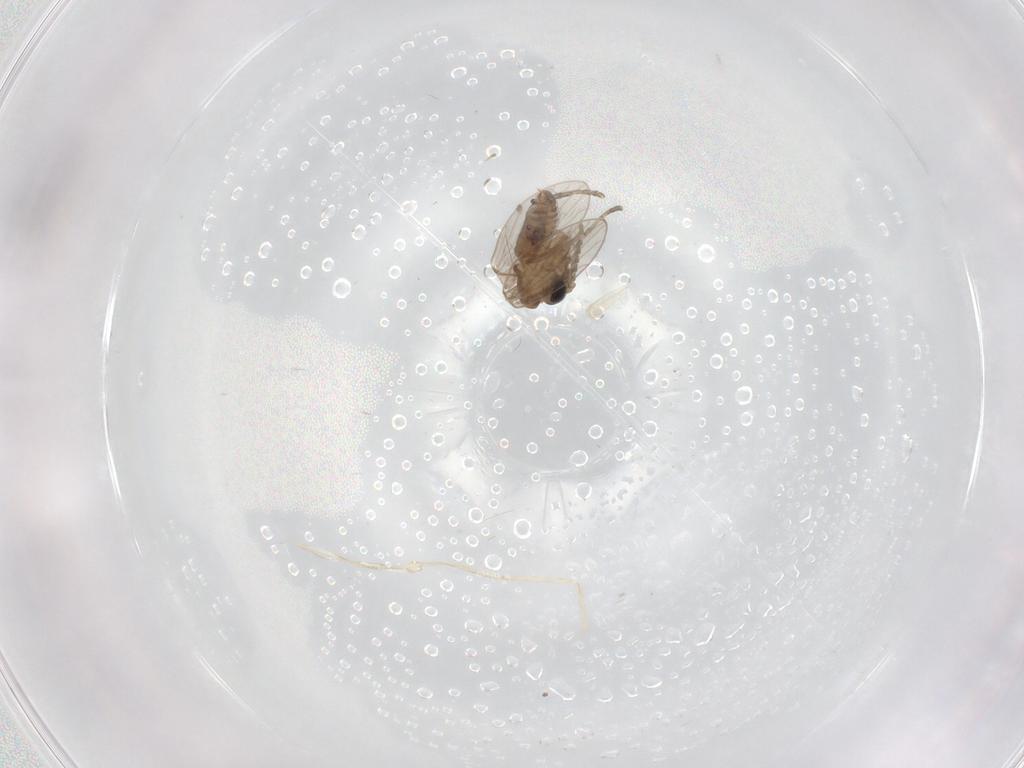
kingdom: Animalia
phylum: Arthropoda
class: Insecta
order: Diptera
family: Psychodidae
